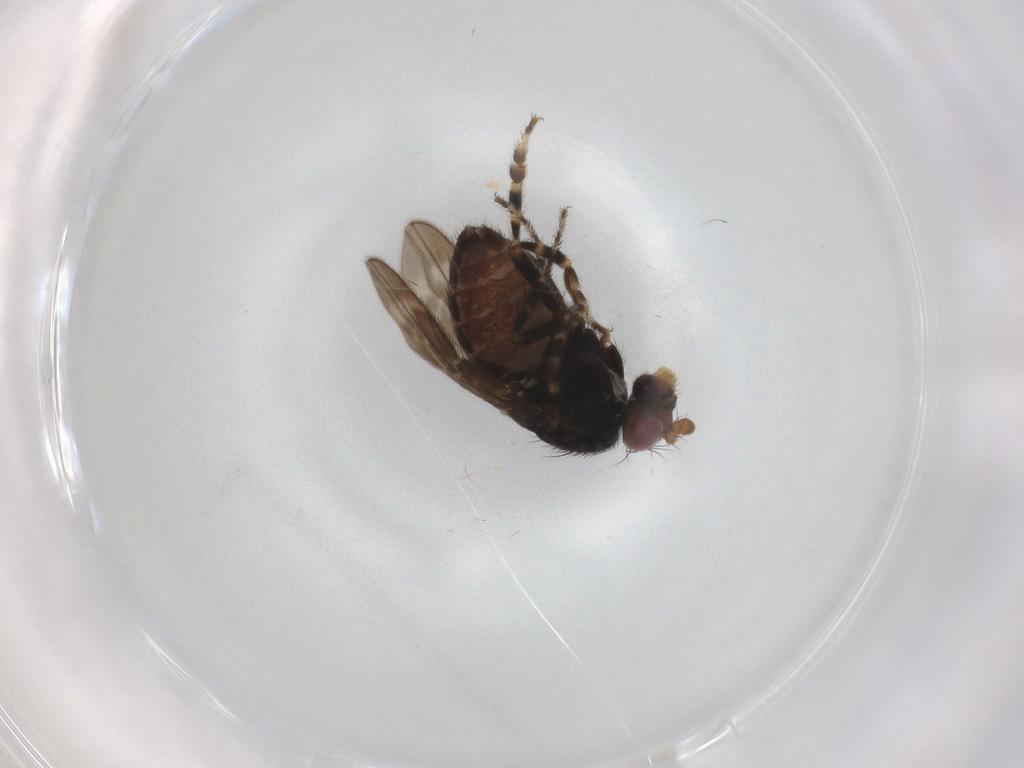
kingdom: Animalia
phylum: Arthropoda
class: Insecta
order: Diptera
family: Sphaeroceridae
